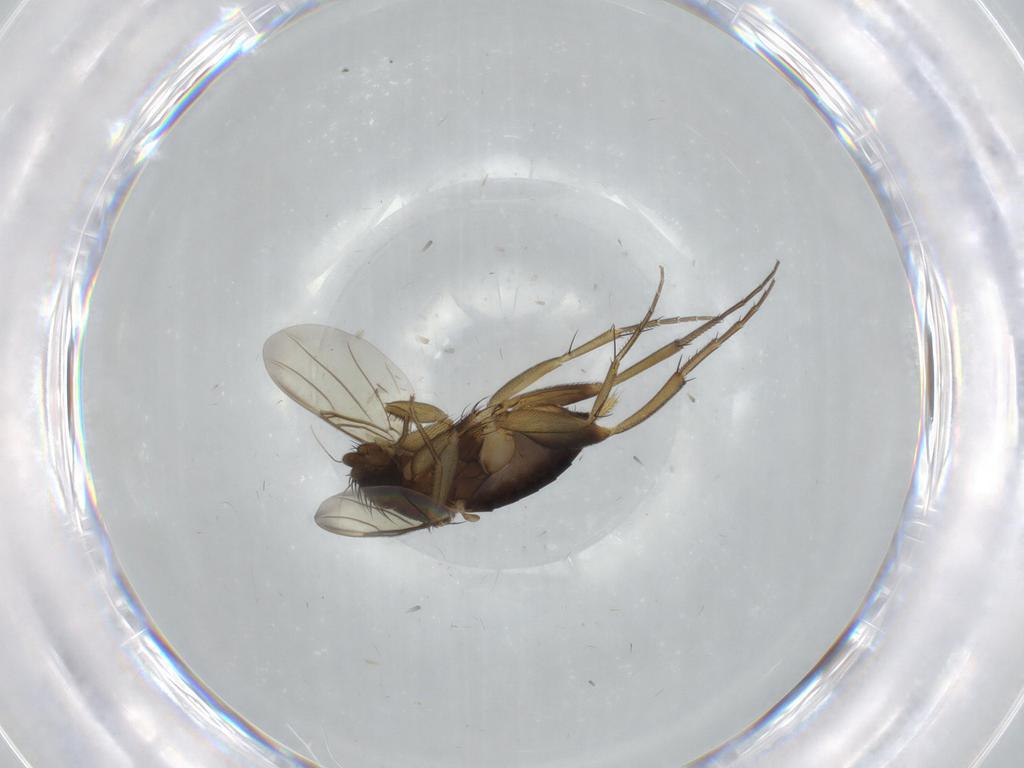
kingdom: Animalia
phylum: Arthropoda
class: Insecta
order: Diptera
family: Phoridae
